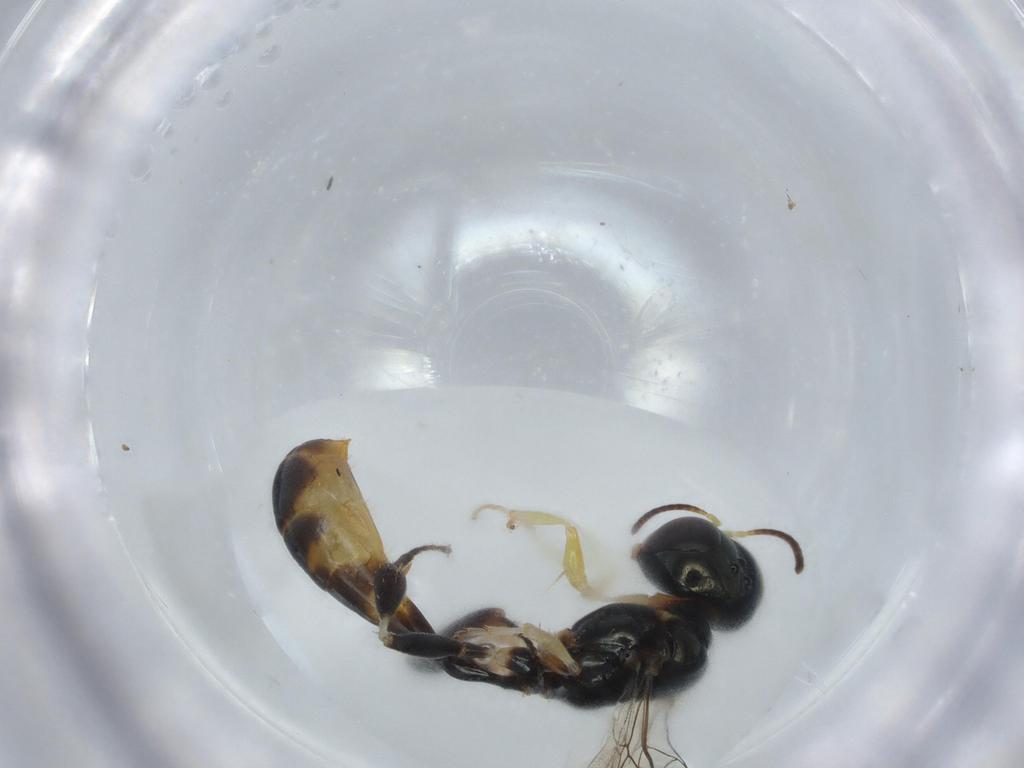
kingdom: Animalia
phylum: Arthropoda
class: Insecta
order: Hymenoptera
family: Crabronidae
